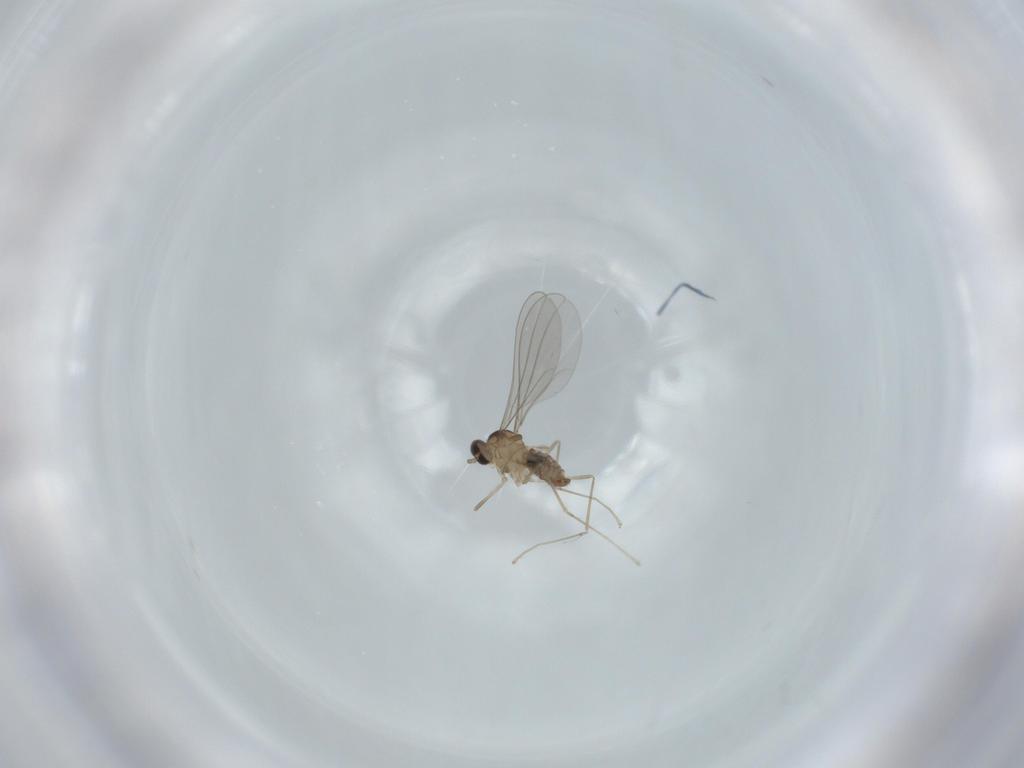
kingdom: Animalia
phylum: Arthropoda
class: Insecta
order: Diptera
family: Cecidomyiidae
